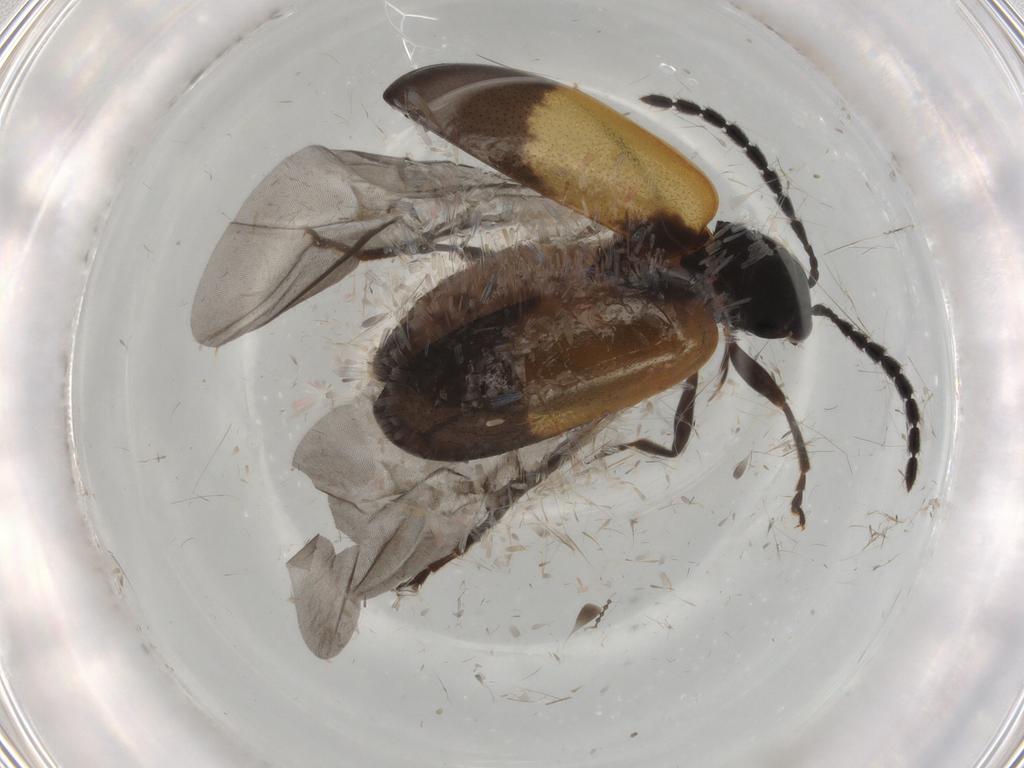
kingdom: Animalia
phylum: Arthropoda
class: Insecta
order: Coleoptera
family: Chrysomelidae
